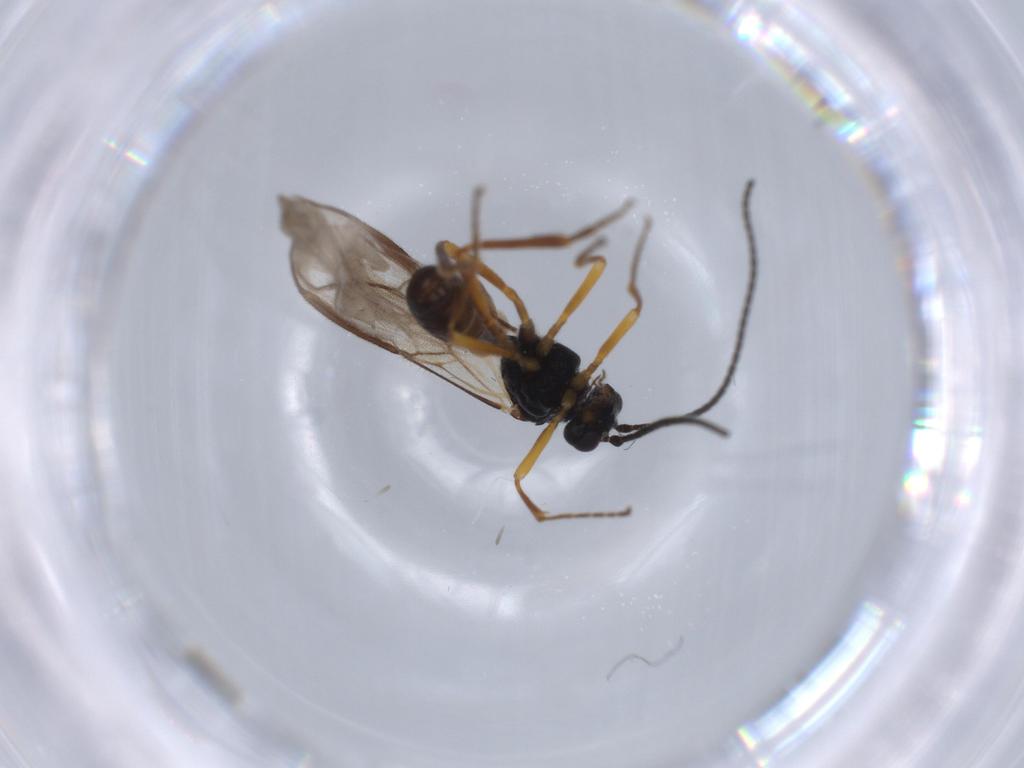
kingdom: Animalia
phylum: Arthropoda
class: Insecta
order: Hymenoptera
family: Braconidae
